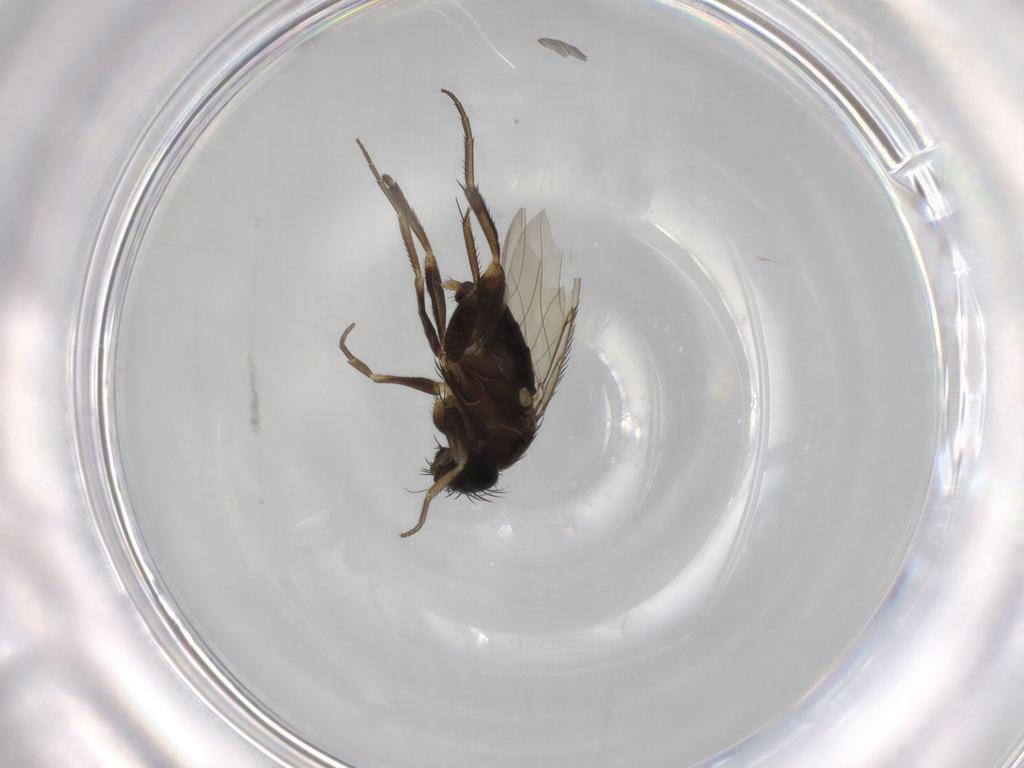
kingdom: Animalia
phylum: Arthropoda
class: Insecta
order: Diptera
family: Phoridae
